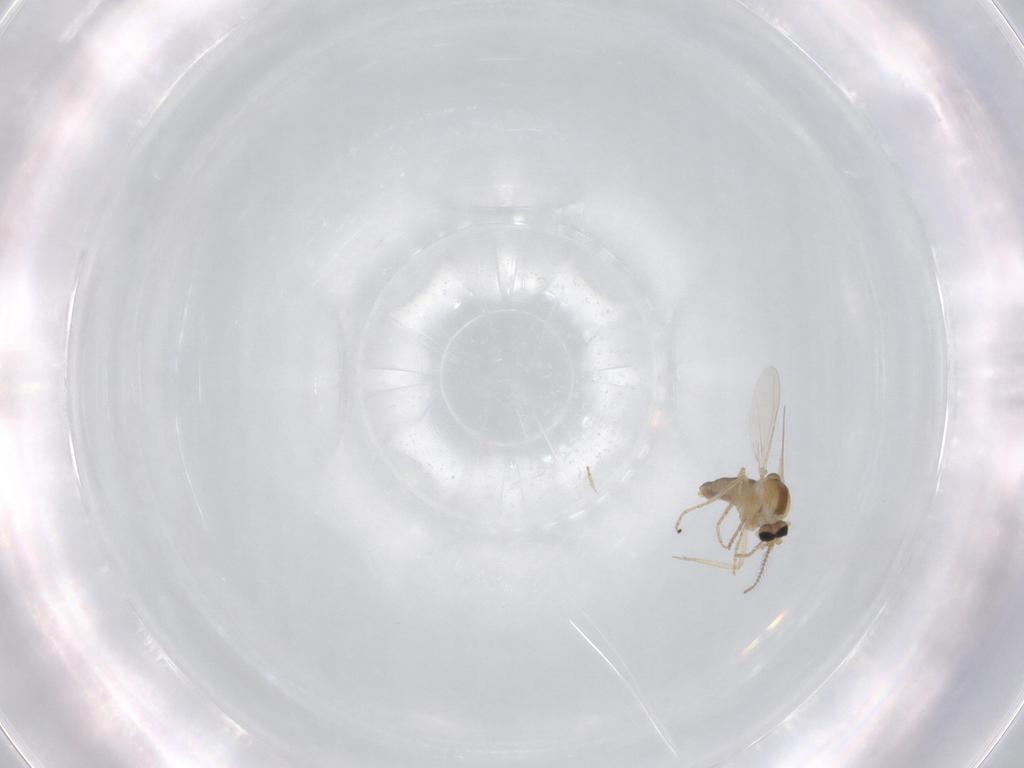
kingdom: Animalia
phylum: Arthropoda
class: Insecta
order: Diptera
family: Ceratopogonidae
